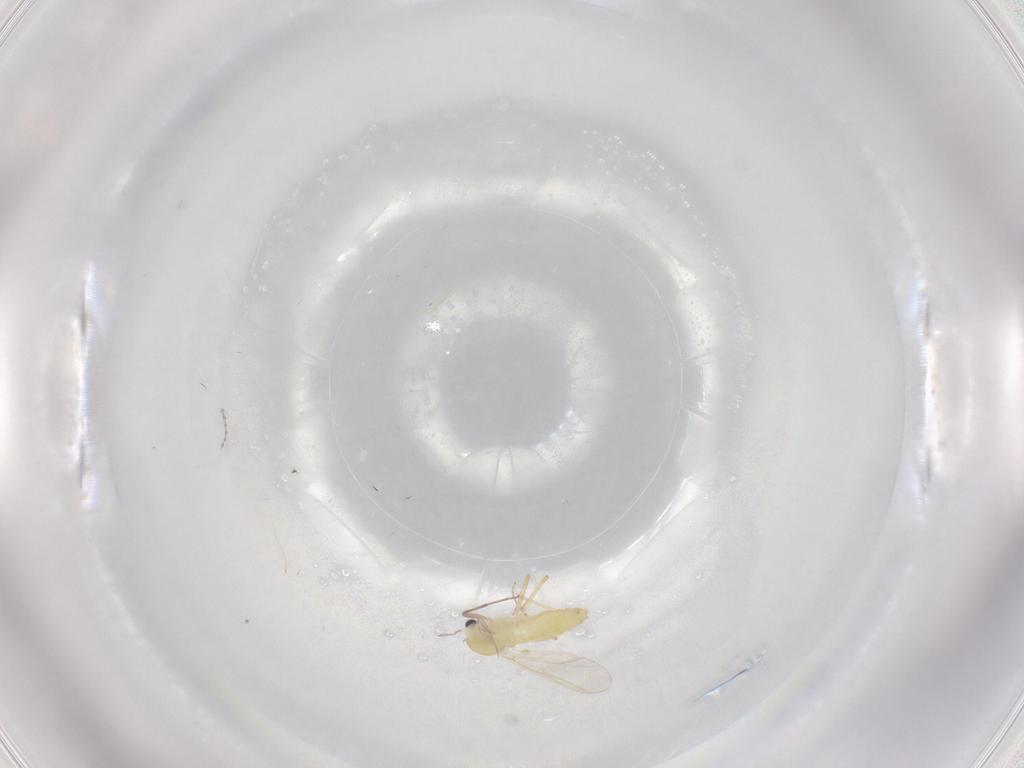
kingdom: Animalia
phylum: Arthropoda
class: Insecta
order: Diptera
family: Cecidomyiidae
